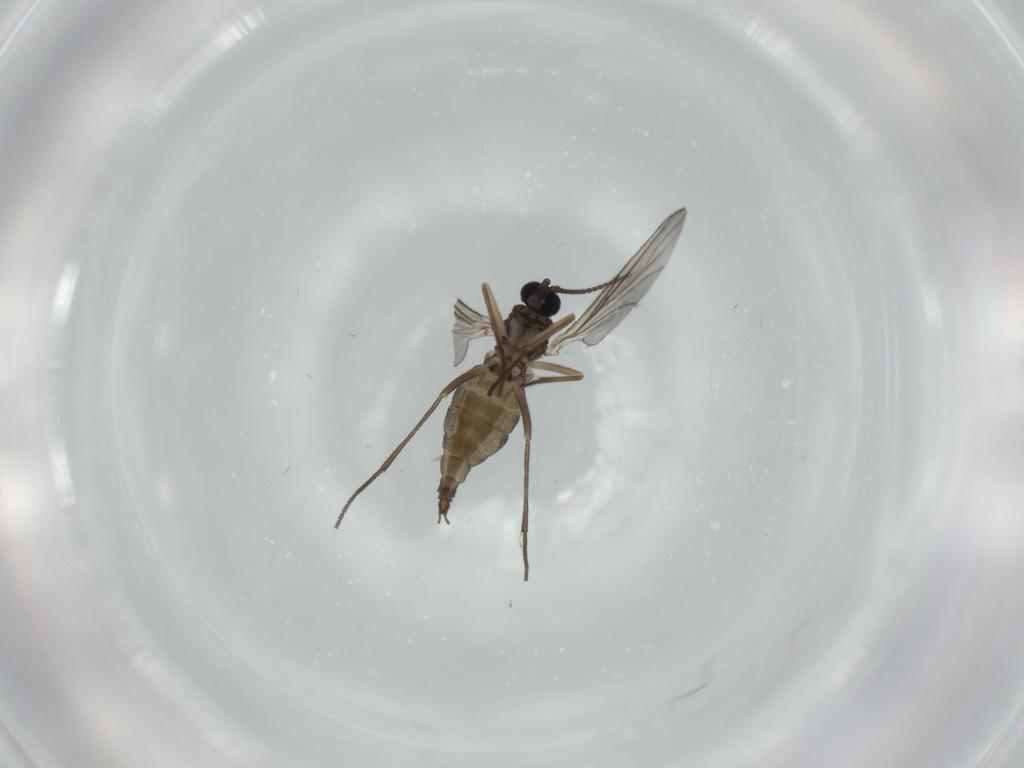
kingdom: Animalia
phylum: Arthropoda
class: Insecta
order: Diptera
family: Sciaridae
